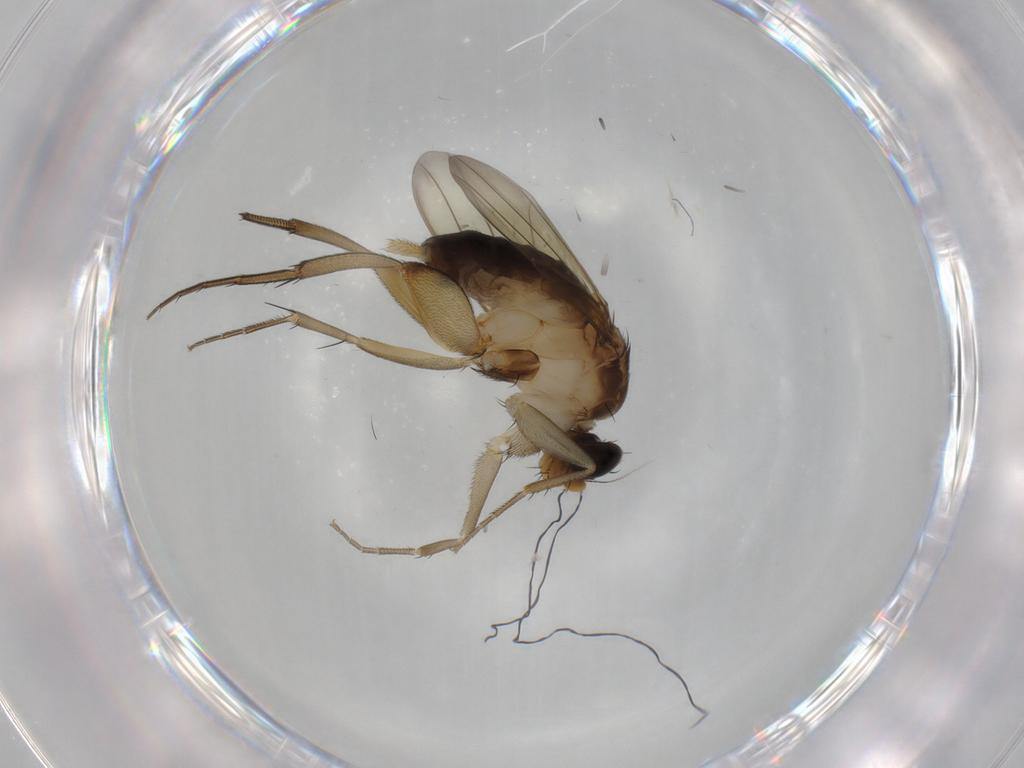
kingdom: Animalia
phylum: Arthropoda
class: Insecta
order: Diptera
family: Phoridae
